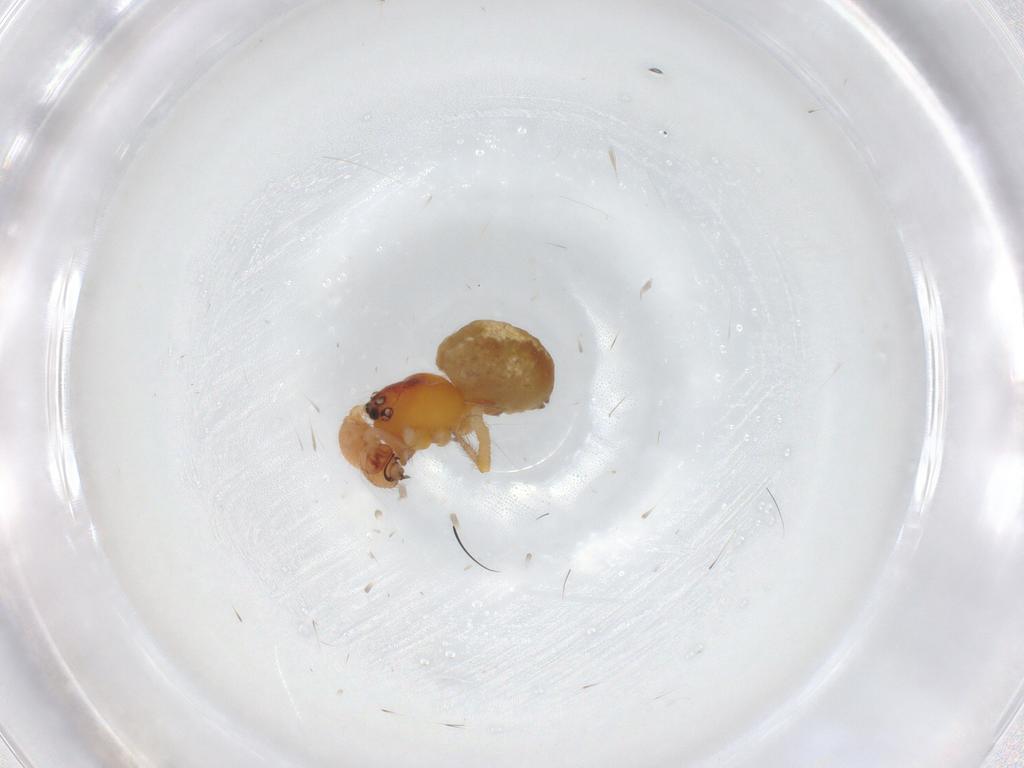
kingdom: Animalia
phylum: Arthropoda
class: Arachnida
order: Araneae
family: Theridiidae
